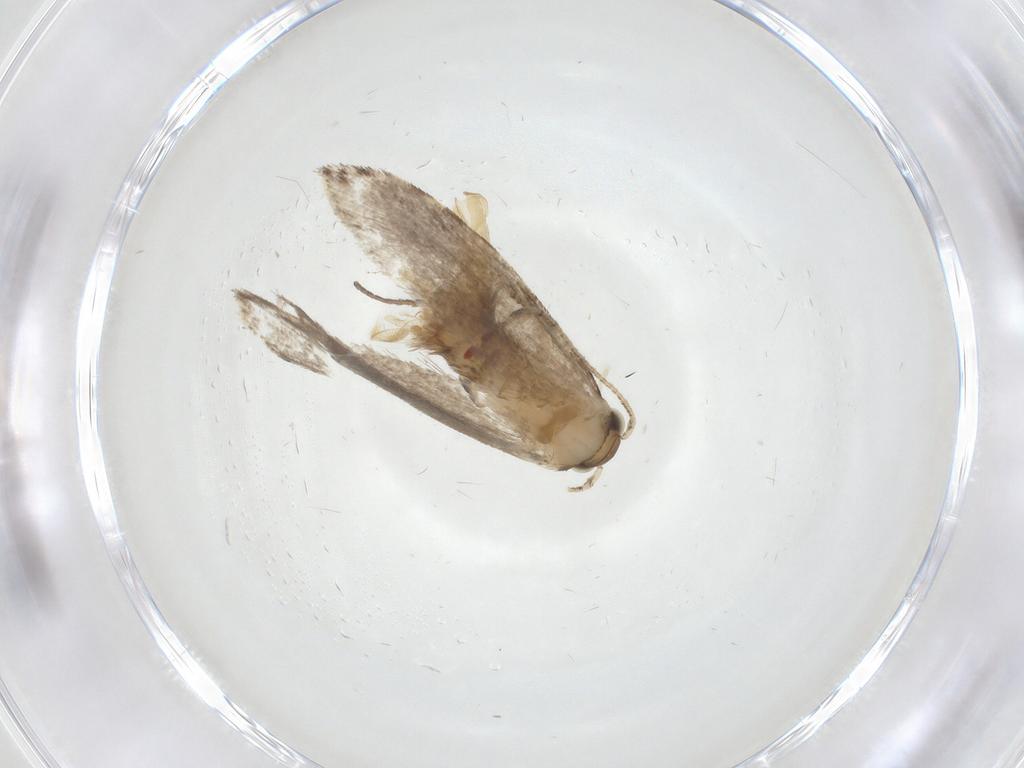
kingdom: Animalia
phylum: Arthropoda
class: Insecta
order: Lepidoptera
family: Tineidae
